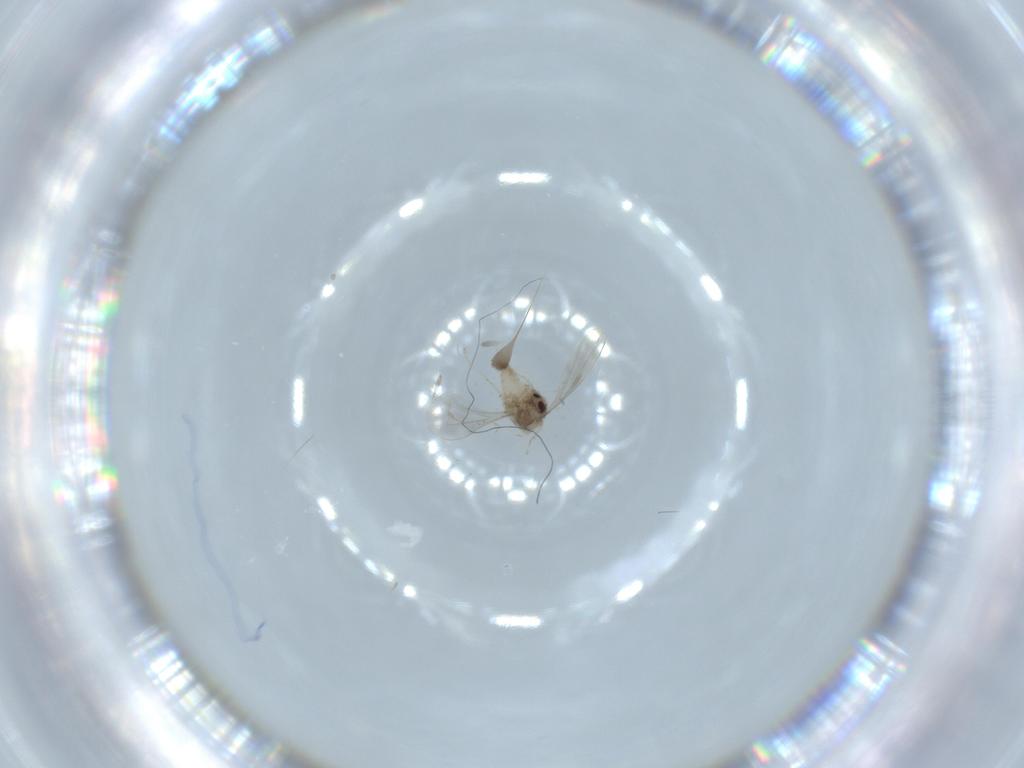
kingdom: Animalia
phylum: Arthropoda
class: Insecta
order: Diptera
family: Cecidomyiidae
